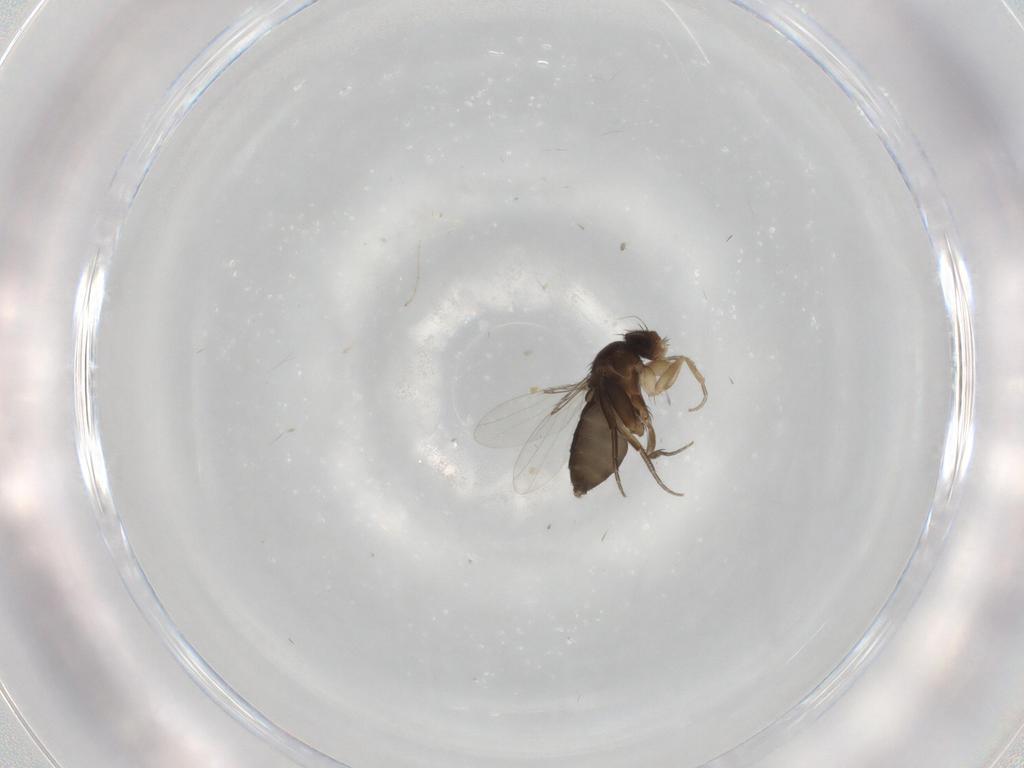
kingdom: Animalia
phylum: Arthropoda
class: Insecta
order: Diptera
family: Phoridae
